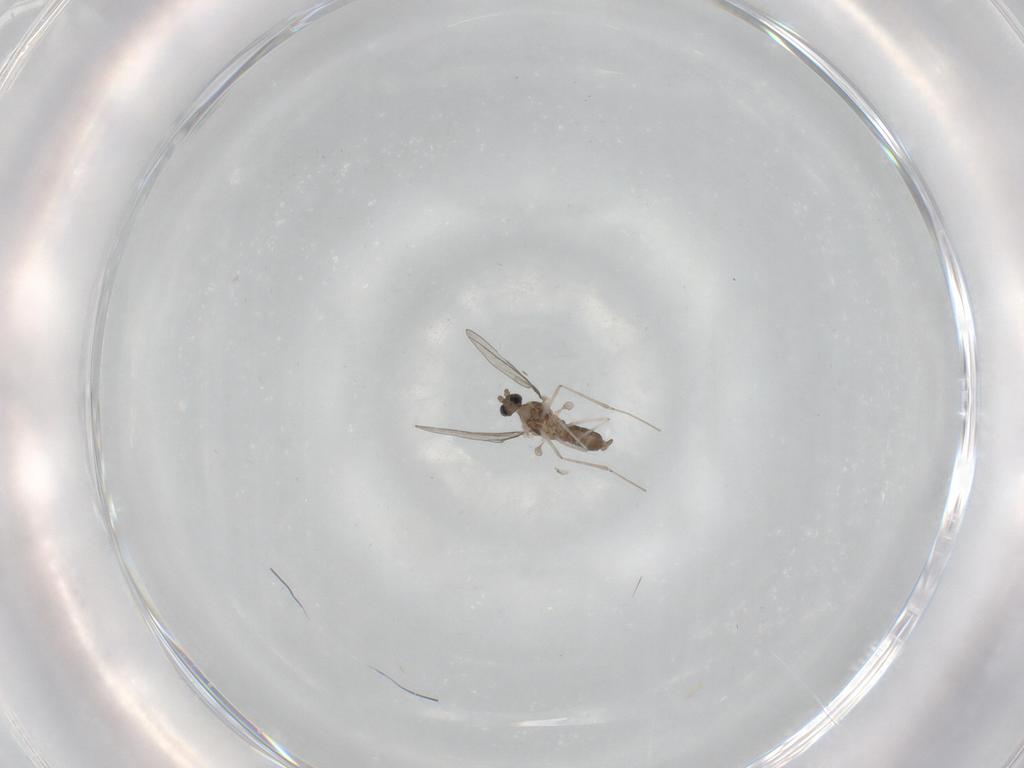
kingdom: Animalia
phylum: Arthropoda
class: Insecta
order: Diptera
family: Cecidomyiidae
